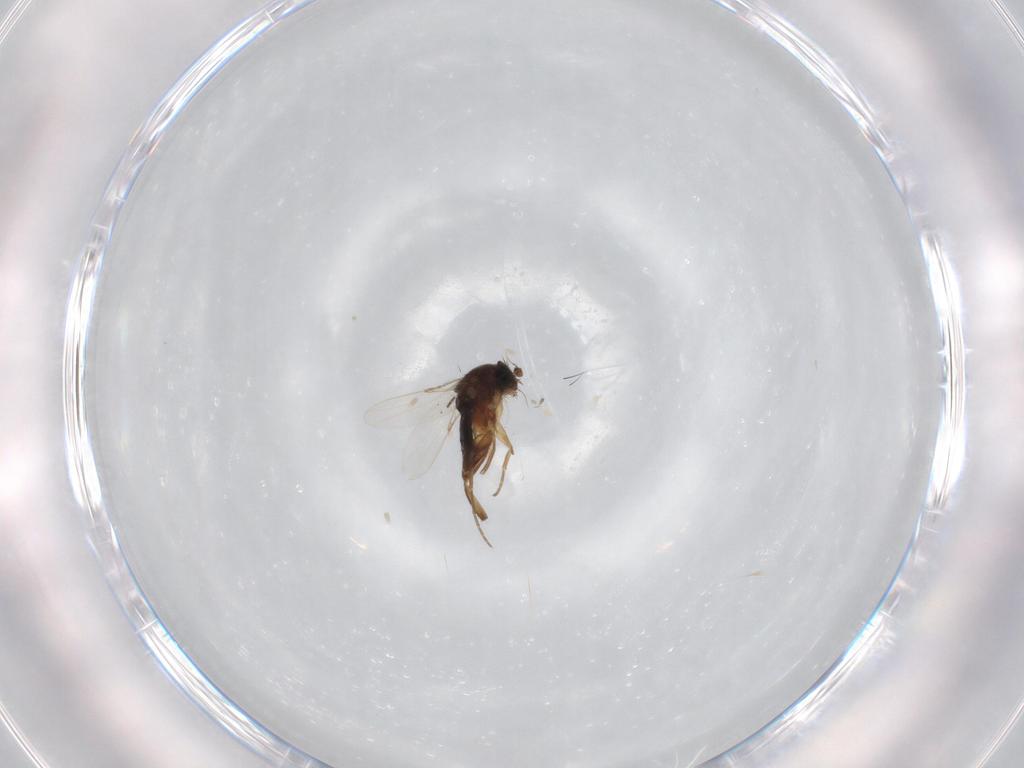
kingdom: Animalia
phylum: Arthropoda
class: Insecta
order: Diptera
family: Phoridae
